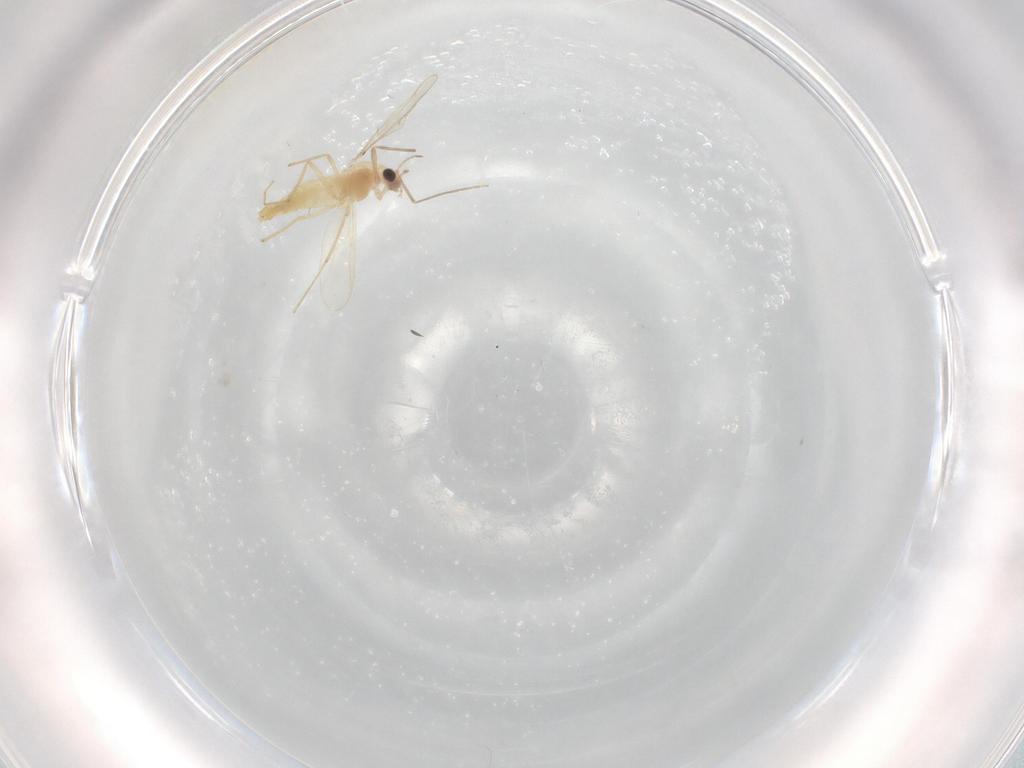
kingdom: Animalia
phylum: Arthropoda
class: Insecta
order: Diptera
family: Chironomidae
